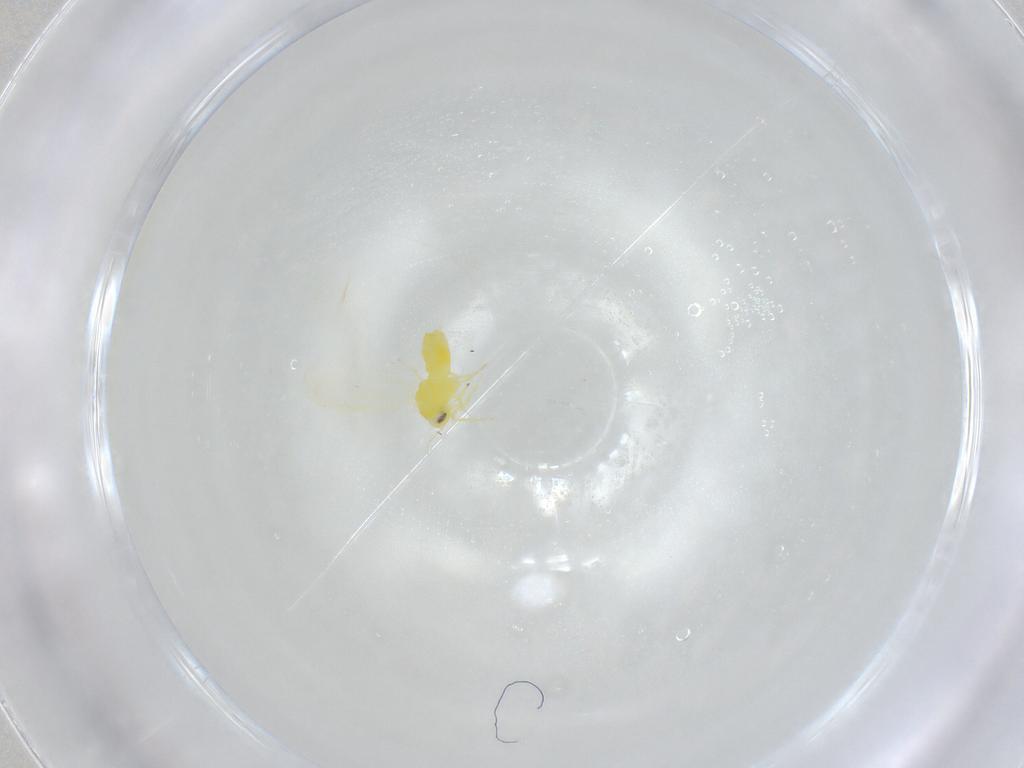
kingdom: Animalia
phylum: Arthropoda
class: Insecta
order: Hemiptera
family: Aleyrodidae
